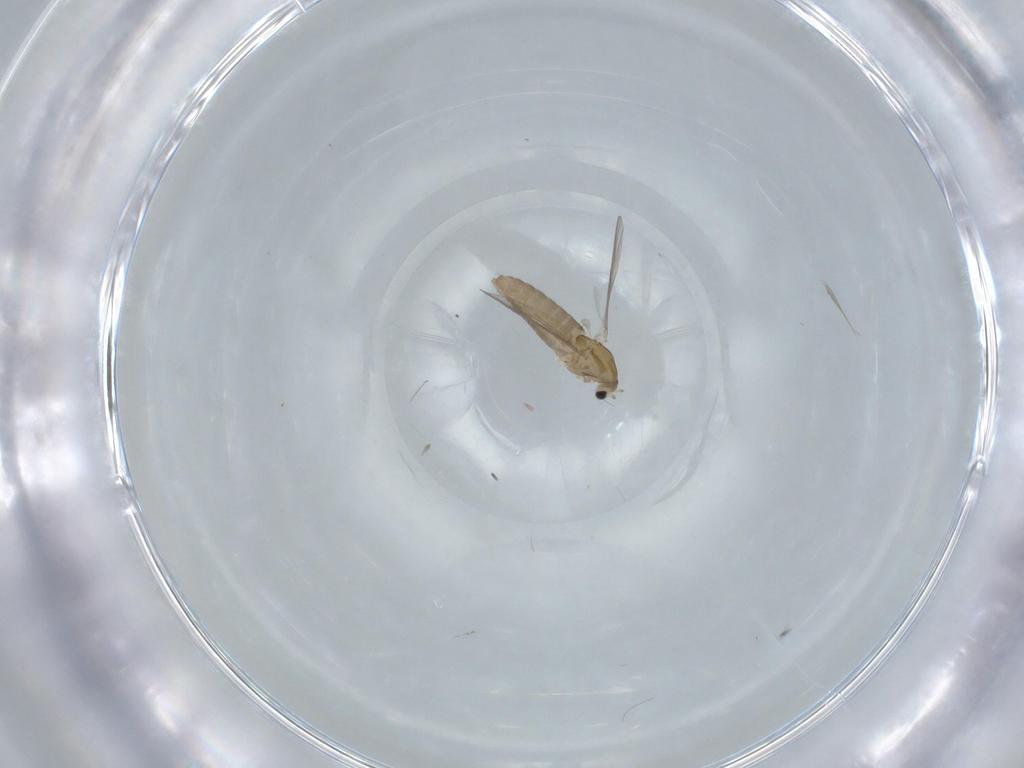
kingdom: Animalia
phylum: Arthropoda
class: Insecta
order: Diptera
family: Chironomidae
